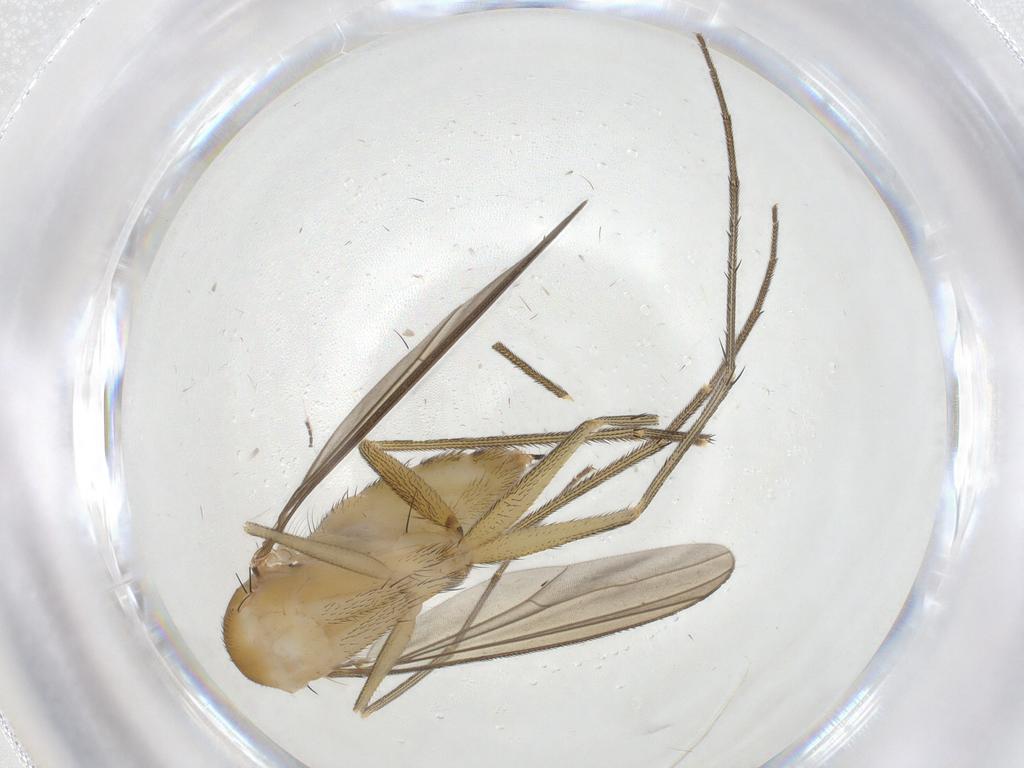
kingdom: Animalia
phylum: Arthropoda
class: Insecta
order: Diptera
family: Dolichopodidae
